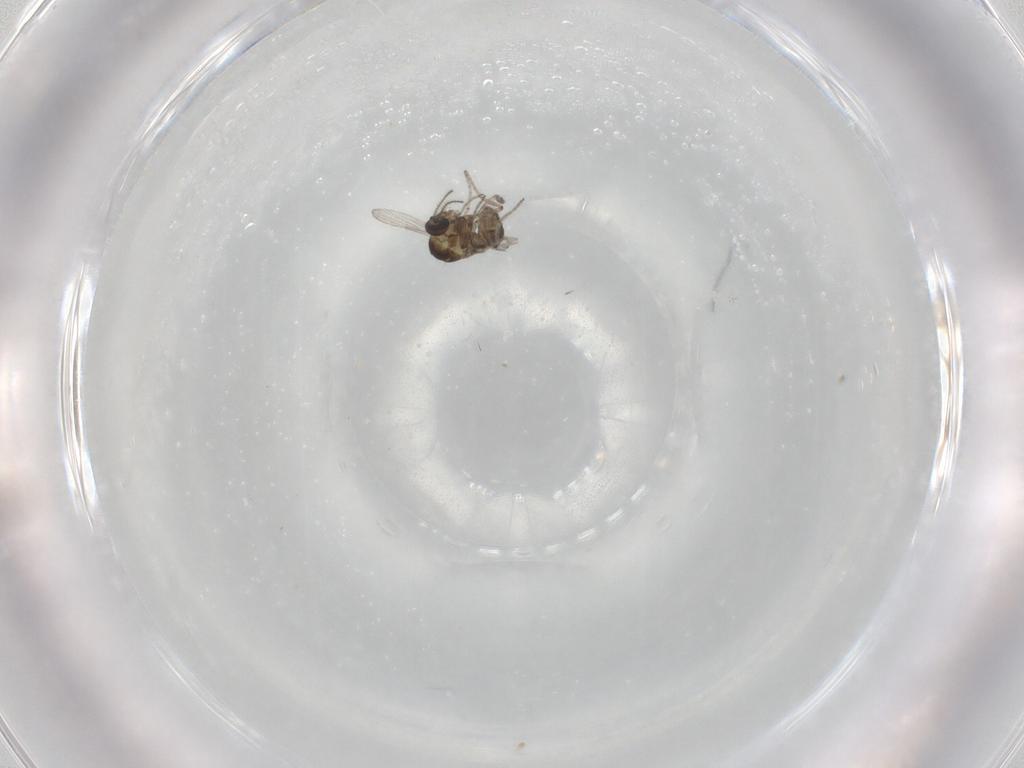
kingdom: Animalia
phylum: Arthropoda
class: Insecta
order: Diptera
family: Ceratopogonidae
